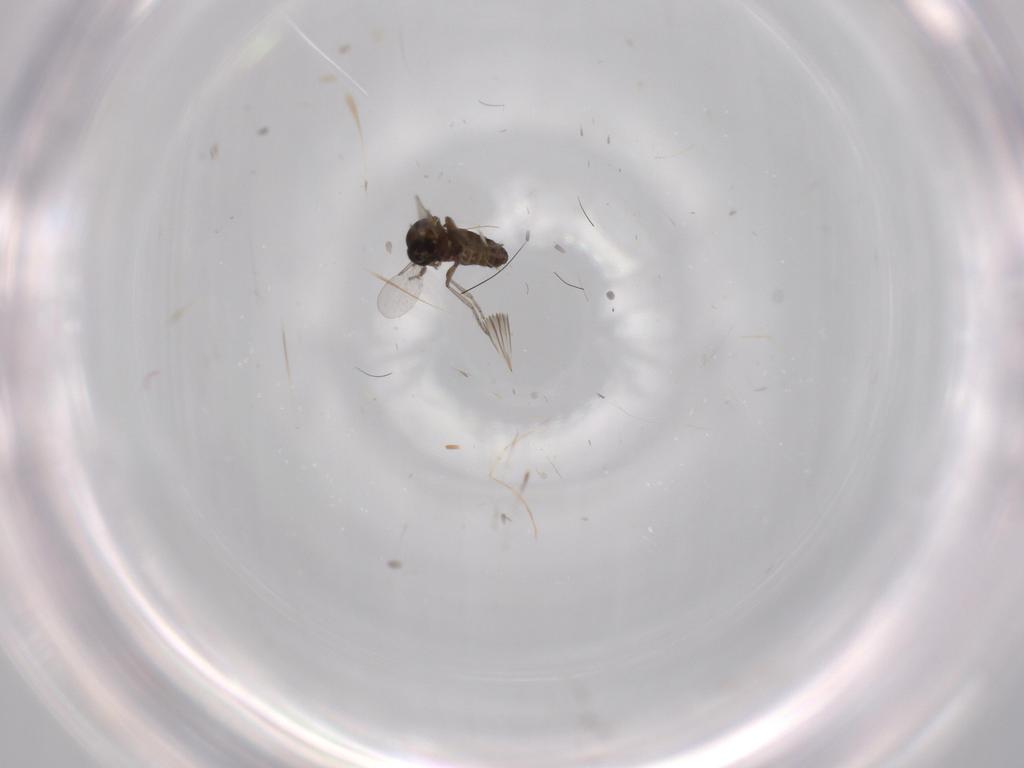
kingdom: Animalia
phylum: Arthropoda
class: Insecta
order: Diptera
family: Ceratopogonidae
